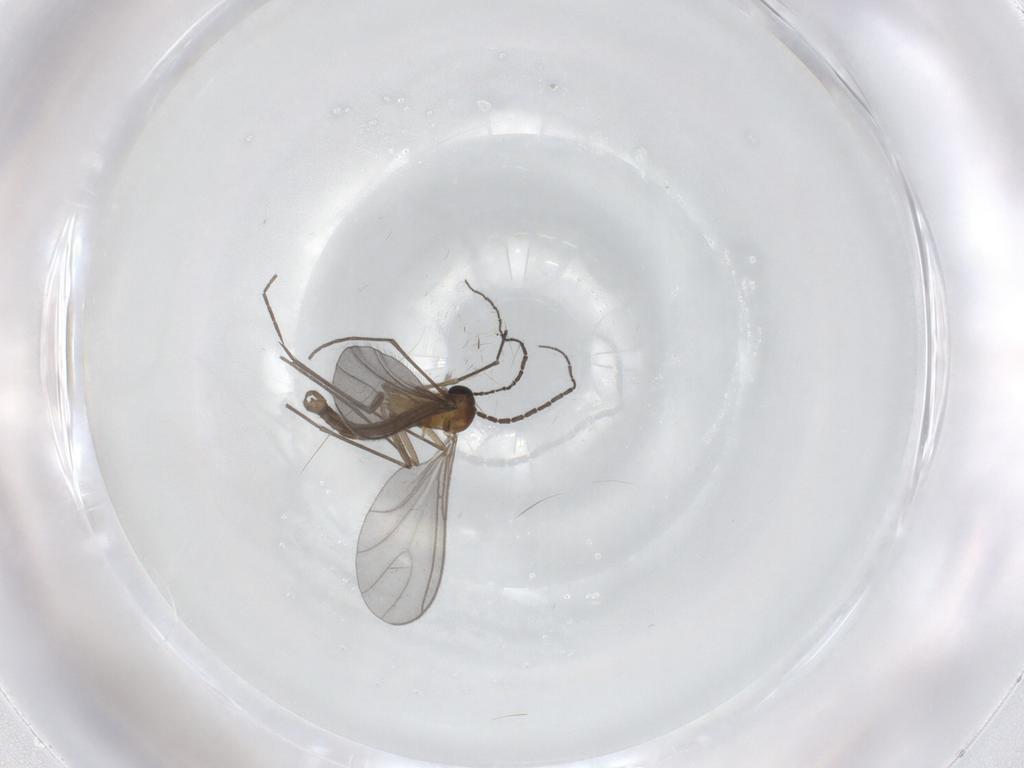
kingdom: Animalia
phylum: Arthropoda
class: Insecta
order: Diptera
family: Sciaridae
